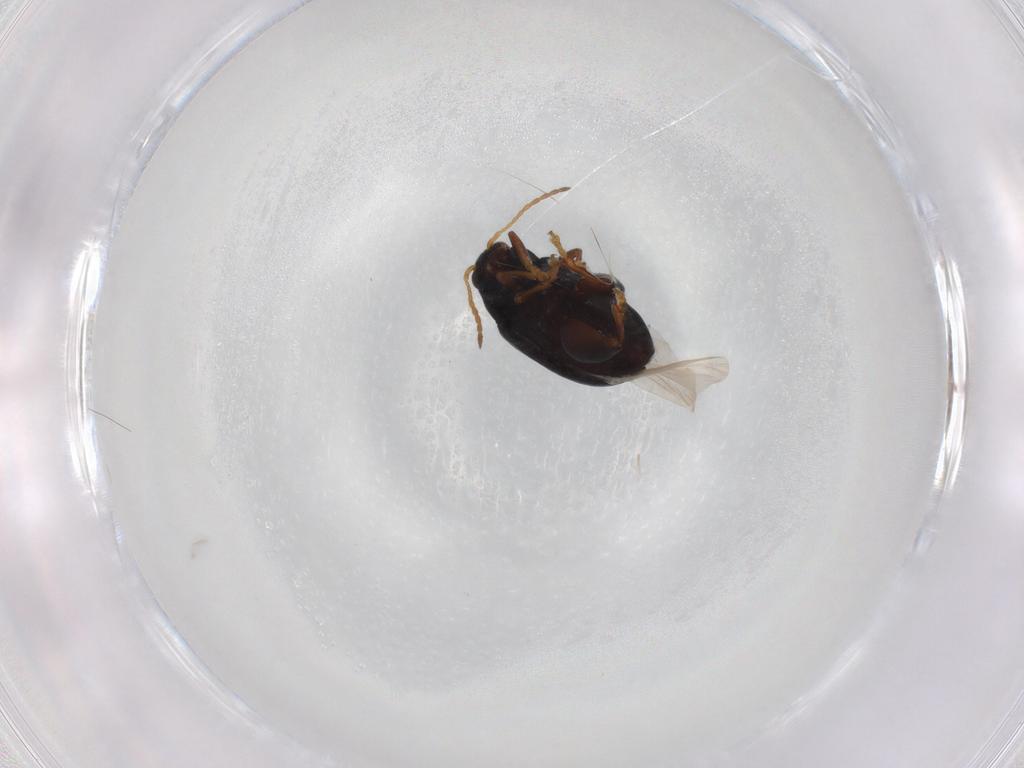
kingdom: Animalia
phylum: Arthropoda
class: Insecta
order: Coleoptera
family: Chrysomelidae
